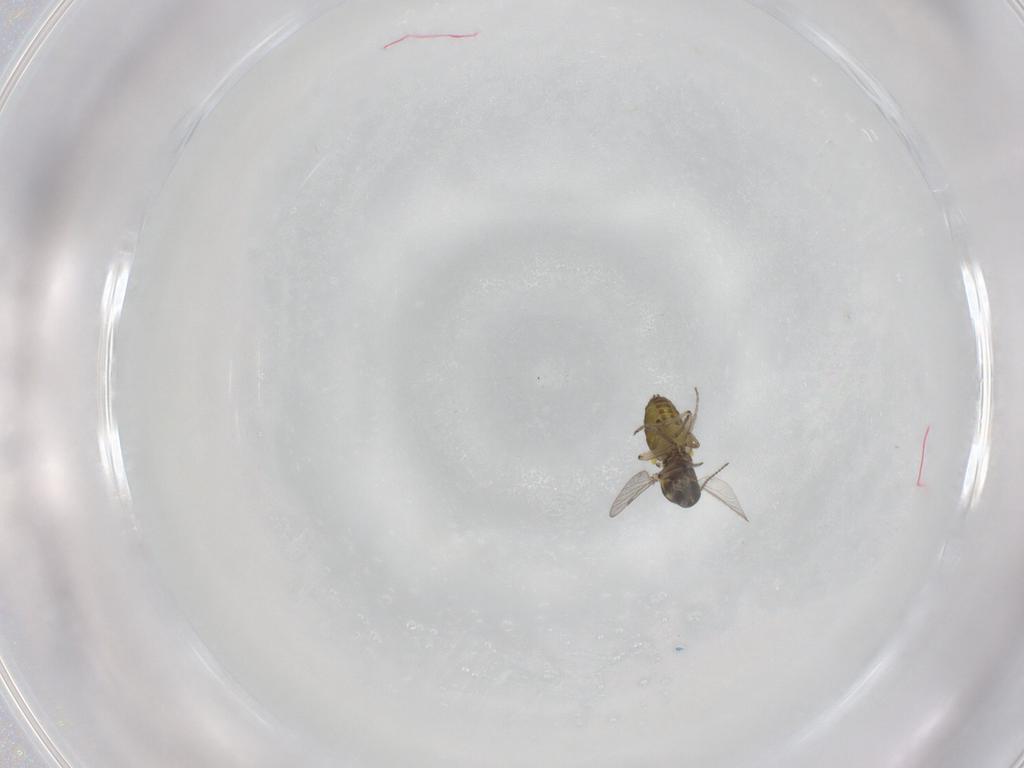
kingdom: Animalia
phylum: Arthropoda
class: Insecta
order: Diptera
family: Ceratopogonidae
